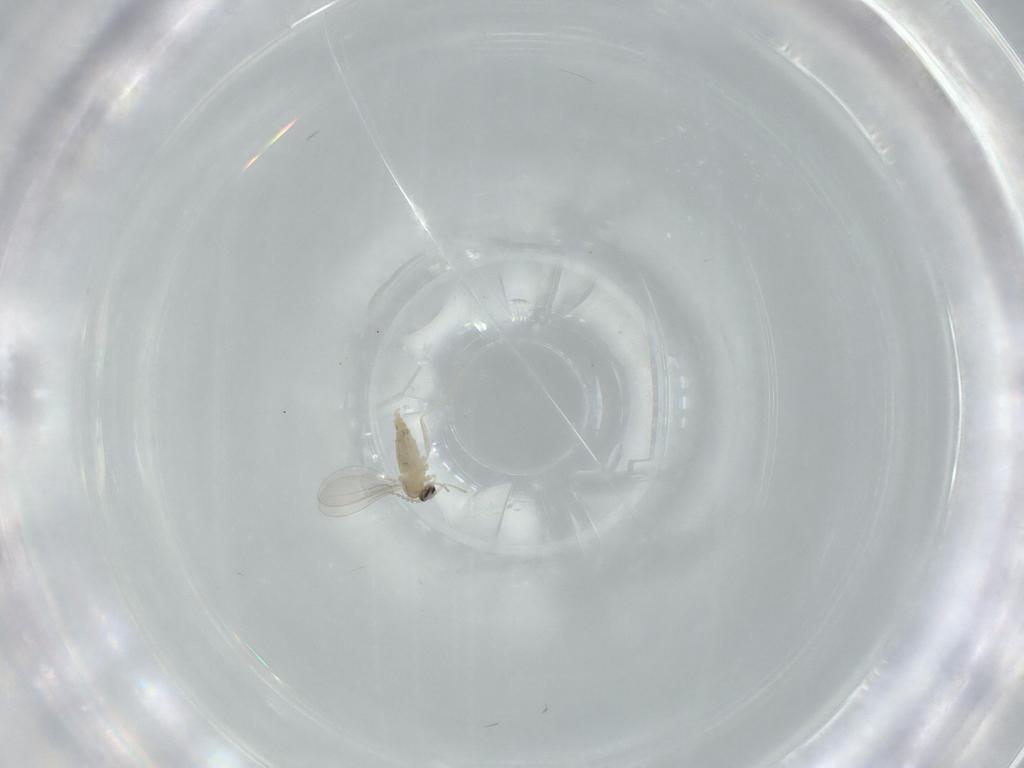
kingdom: Animalia
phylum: Arthropoda
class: Insecta
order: Diptera
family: Cecidomyiidae
